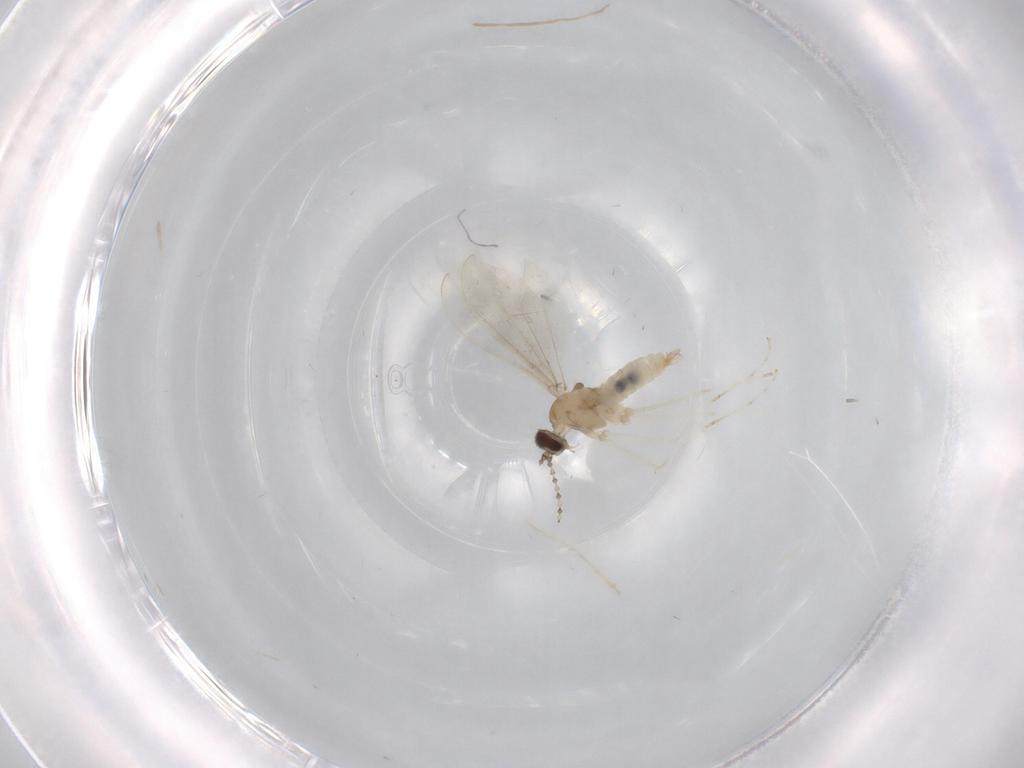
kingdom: Animalia
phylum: Arthropoda
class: Insecta
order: Diptera
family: Cecidomyiidae
